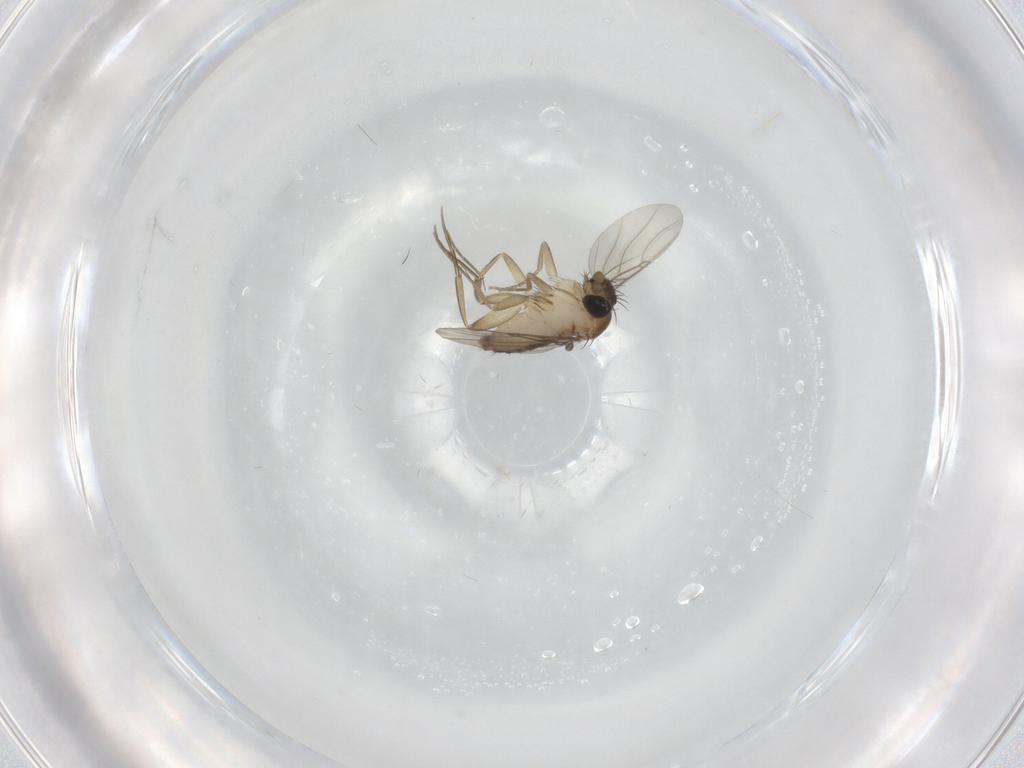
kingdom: Animalia
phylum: Arthropoda
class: Insecta
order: Diptera
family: Phoridae
